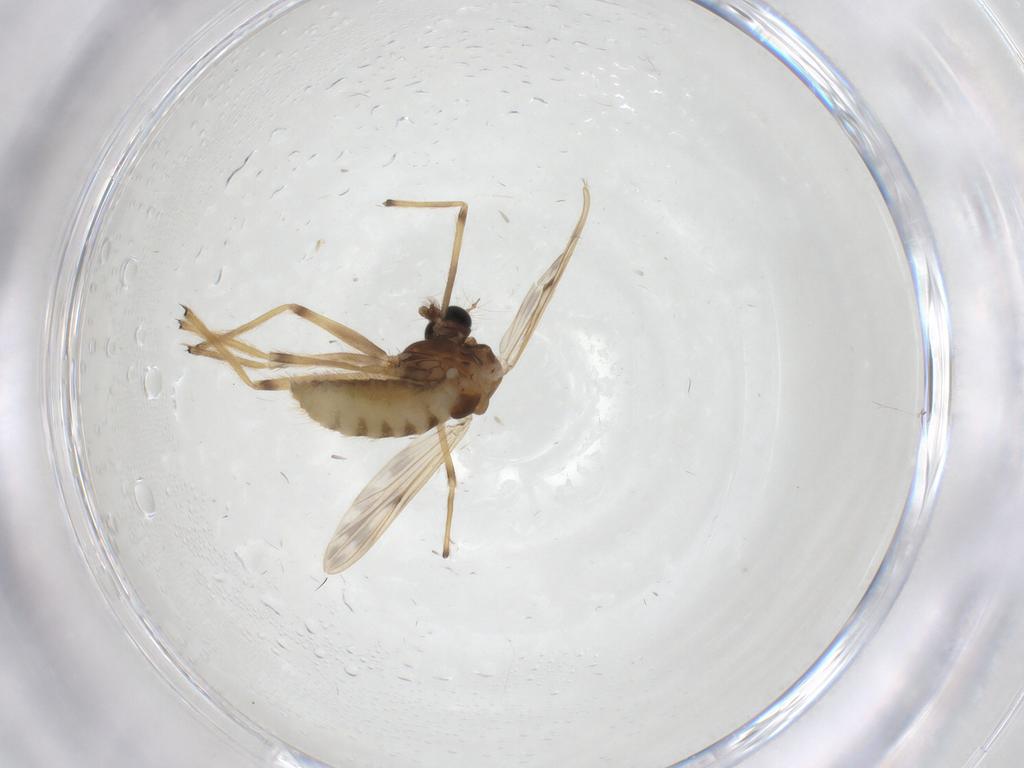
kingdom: Animalia
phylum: Arthropoda
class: Insecta
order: Diptera
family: Chironomidae
